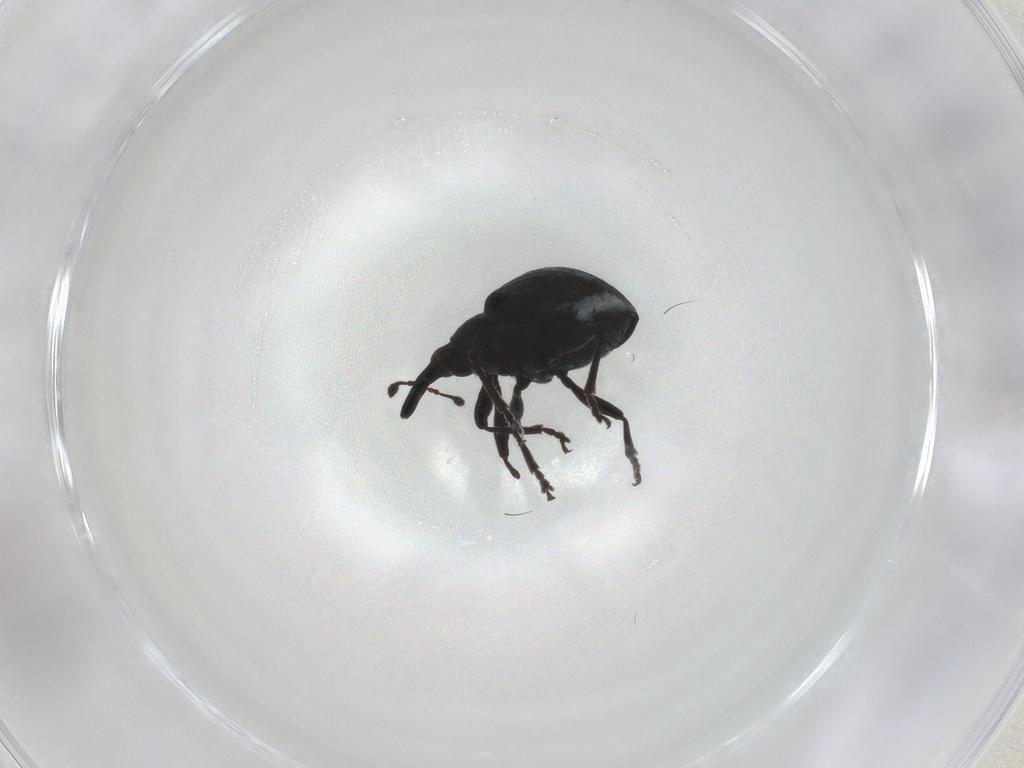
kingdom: Animalia
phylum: Arthropoda
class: Insecta
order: Coleoptera
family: Brentidae
